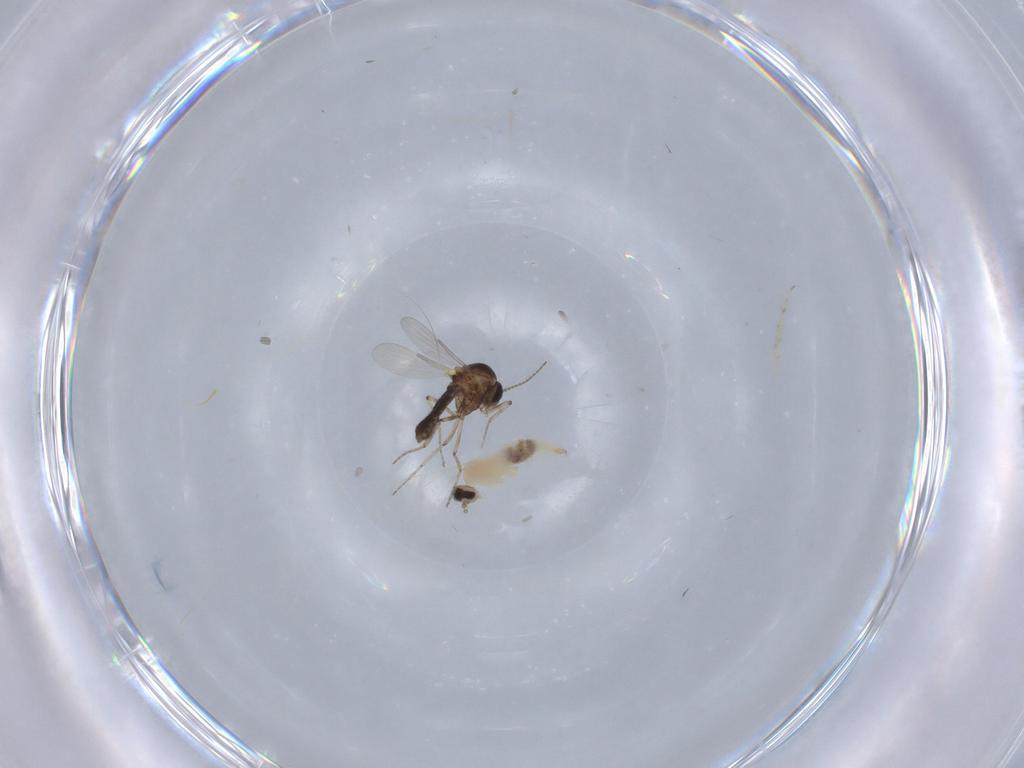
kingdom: Animalia
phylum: Arthropoda
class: Insecta
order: Diptera
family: Ceratopogonidae
